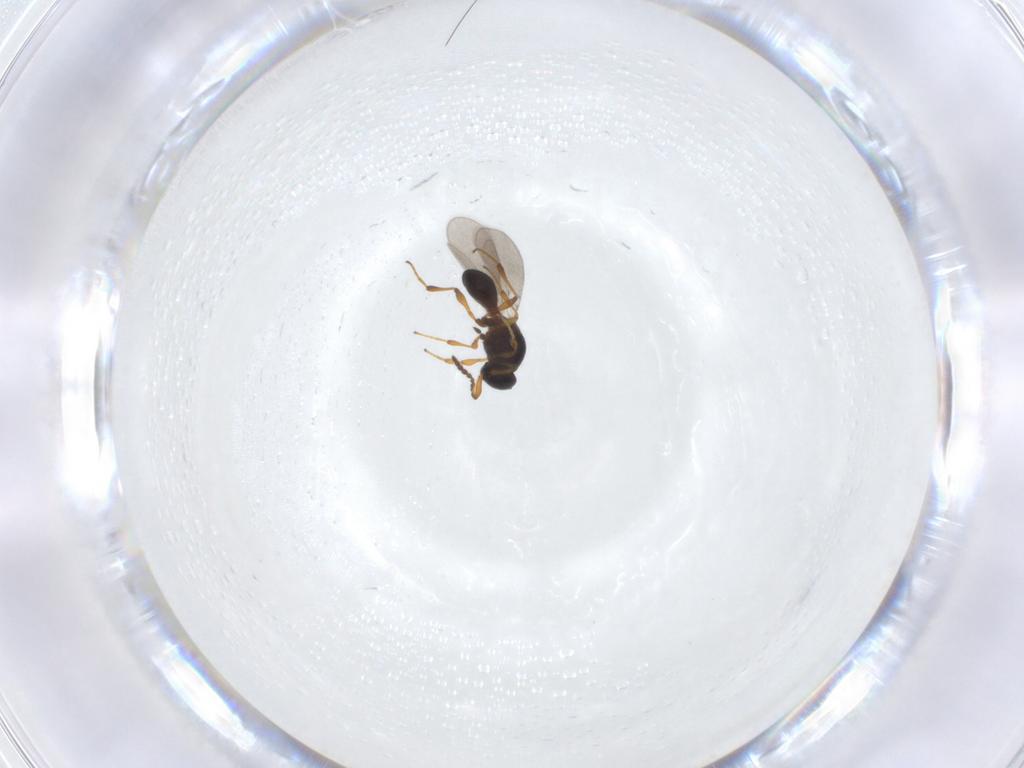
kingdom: Animalia
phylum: Arthropoda
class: Insecta
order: Hymenoptera
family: Platygastridae
